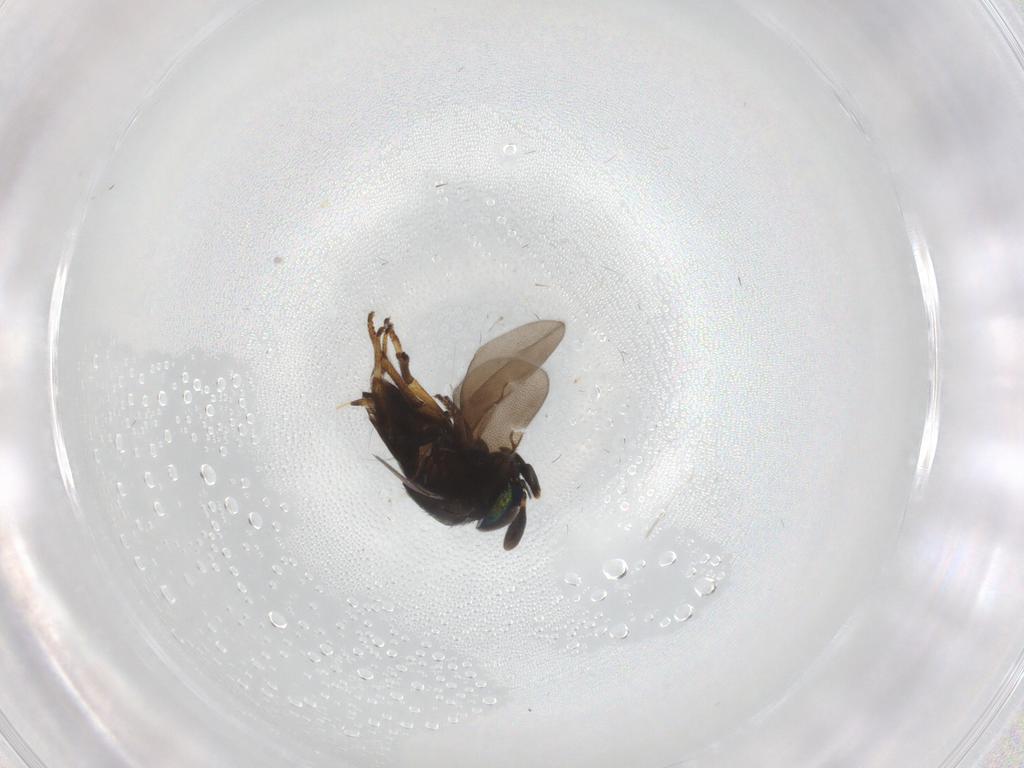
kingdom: Animalia
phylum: Arthropoda
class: Insecta
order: Hymenoptera
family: Encyrtidae
